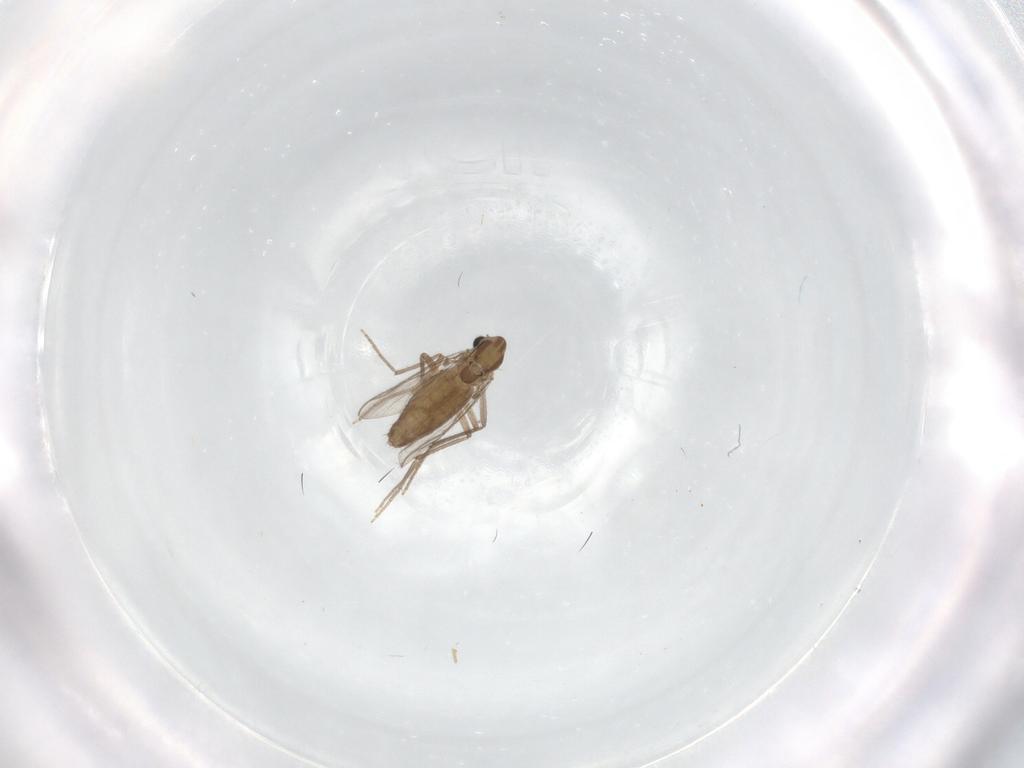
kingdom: Animalia
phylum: Arthropoda
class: Insecta
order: Diptera
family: Chironomidae
